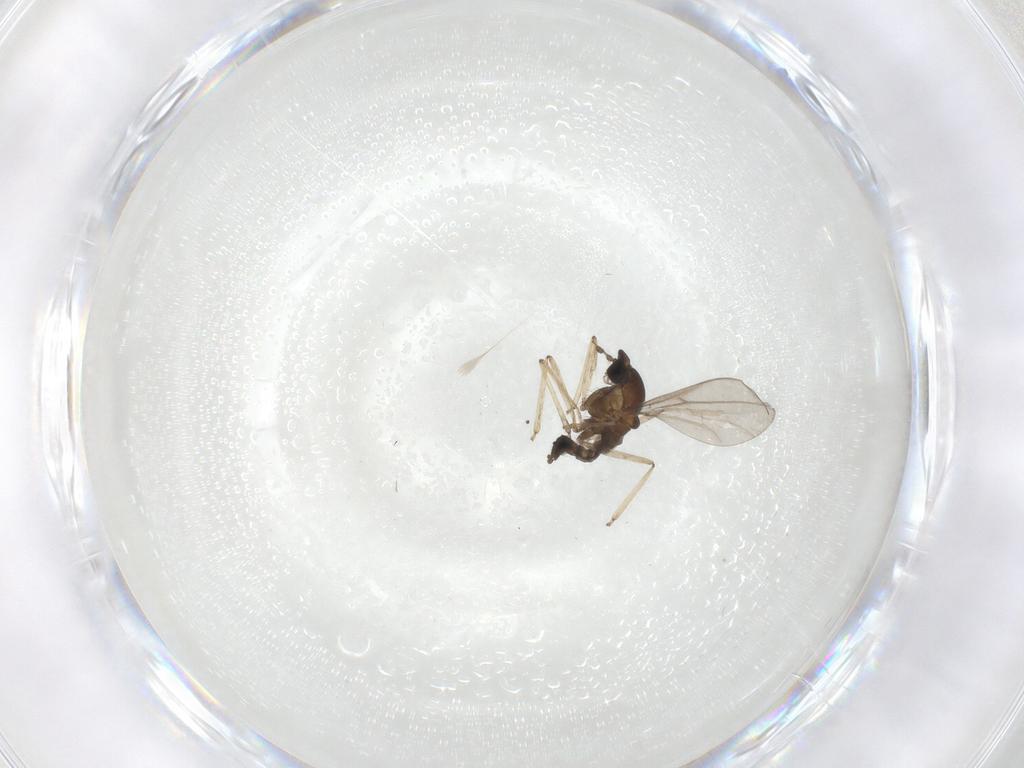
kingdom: Animalia
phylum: Arthropoda
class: Insecta
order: Diptera
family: Cecidomyiidae
